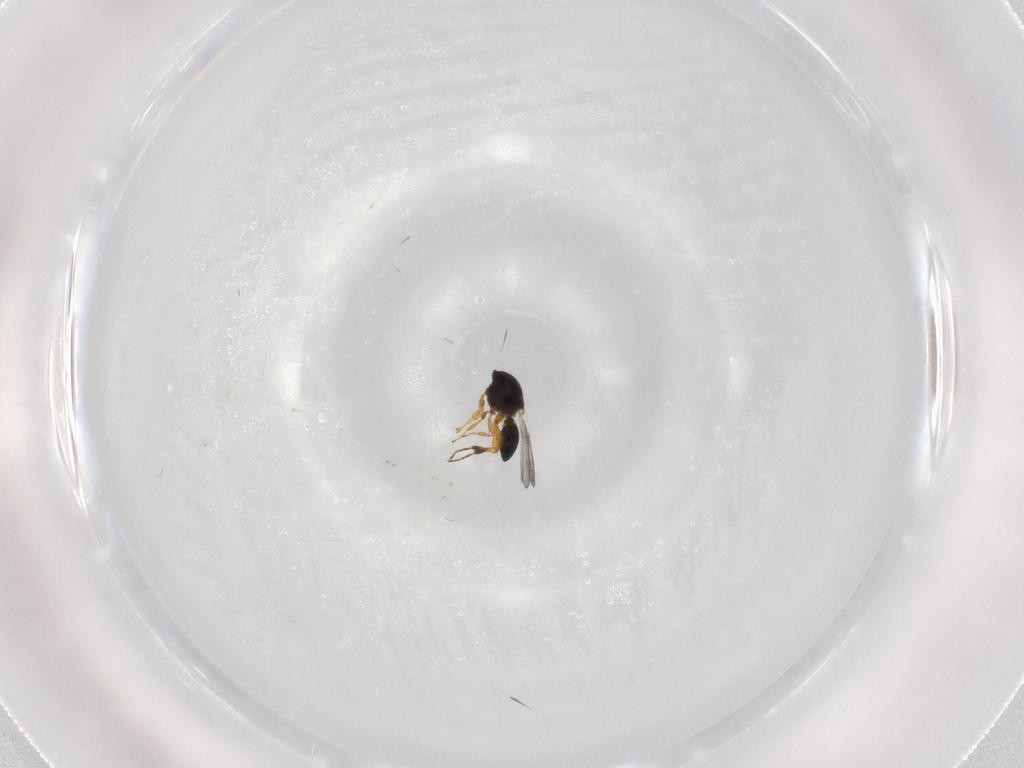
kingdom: Animalia
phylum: Arthropoda
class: Insecta
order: Hymenoptera
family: Platygastridae
